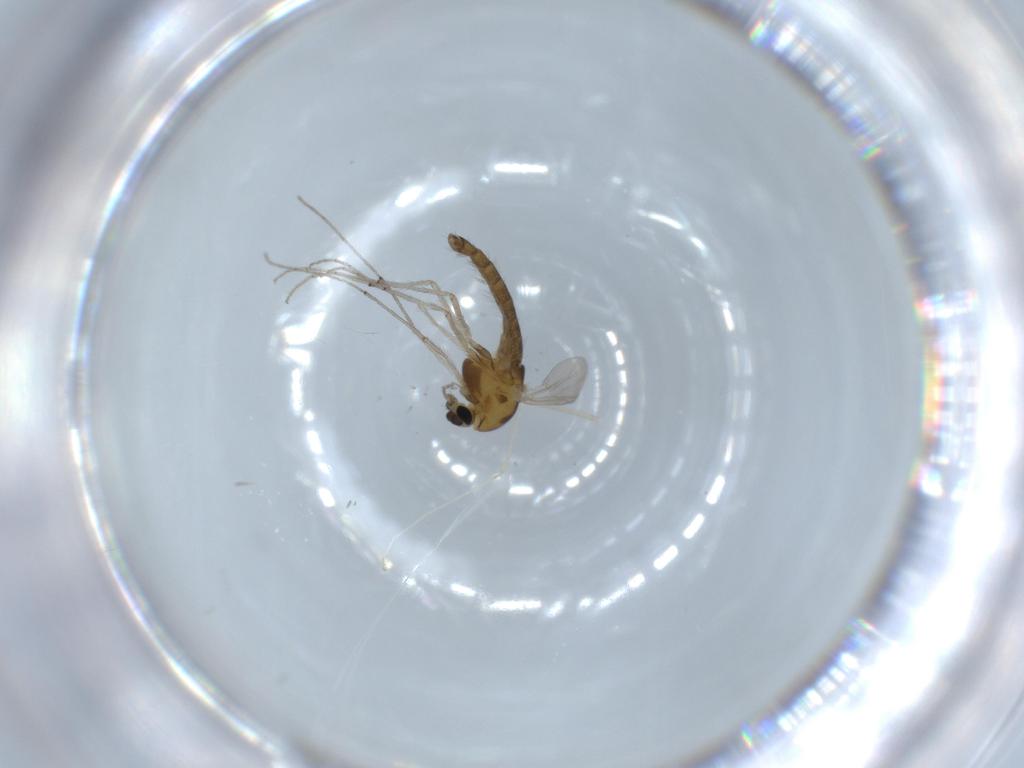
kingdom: Animalia
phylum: Arthropoda
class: Insecta
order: Diptera
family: Chironomidae
